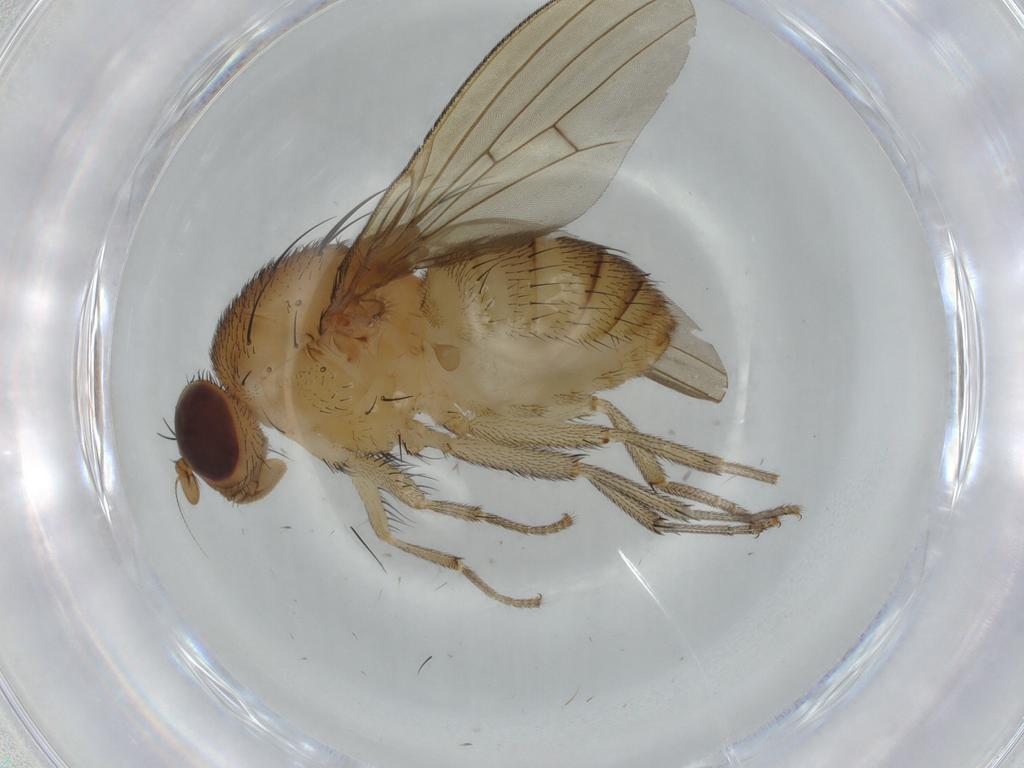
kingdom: Animalia
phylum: Arthropoda
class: Insecta
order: Diptera
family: Lauxaniidae
